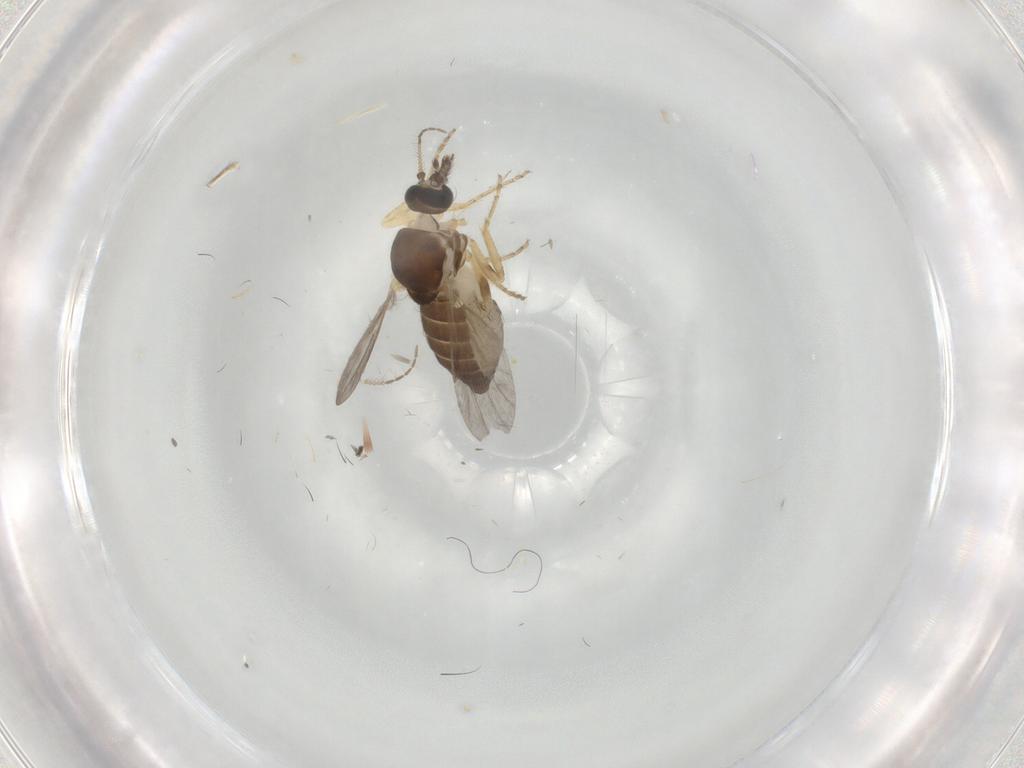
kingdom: Animalia
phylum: Arthropoda
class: Insecta
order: Diptera
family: Ceratopogonidae
